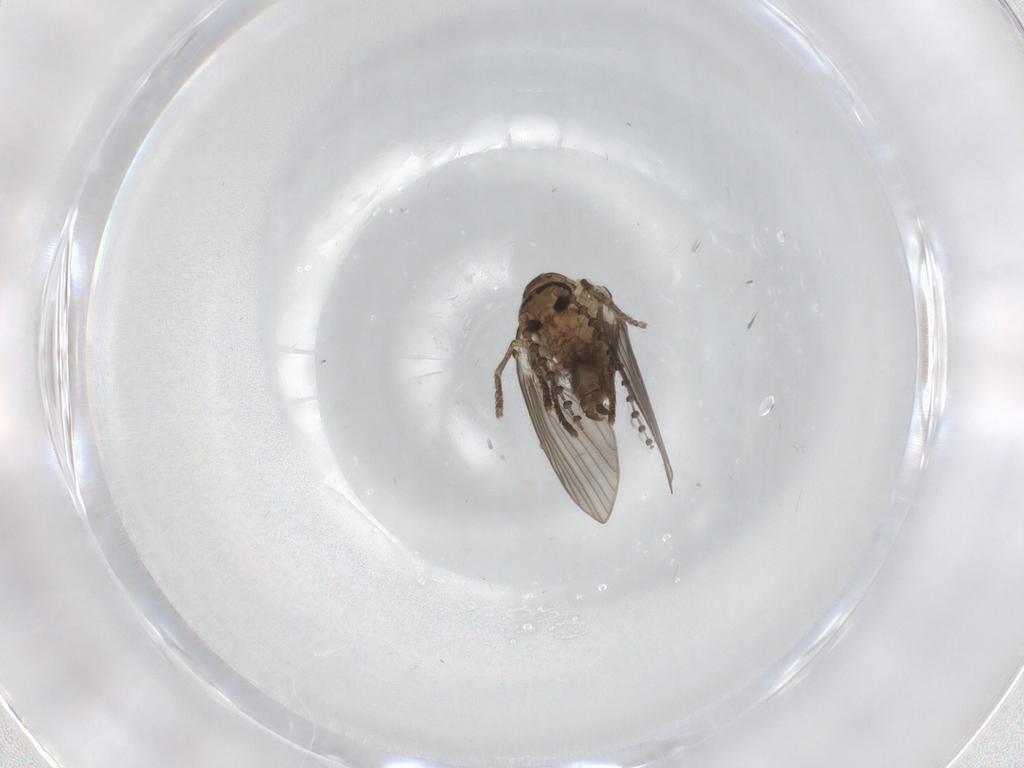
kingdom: Animalia
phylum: Arthropoda
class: Insecta
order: Diptera
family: Psychodidae
